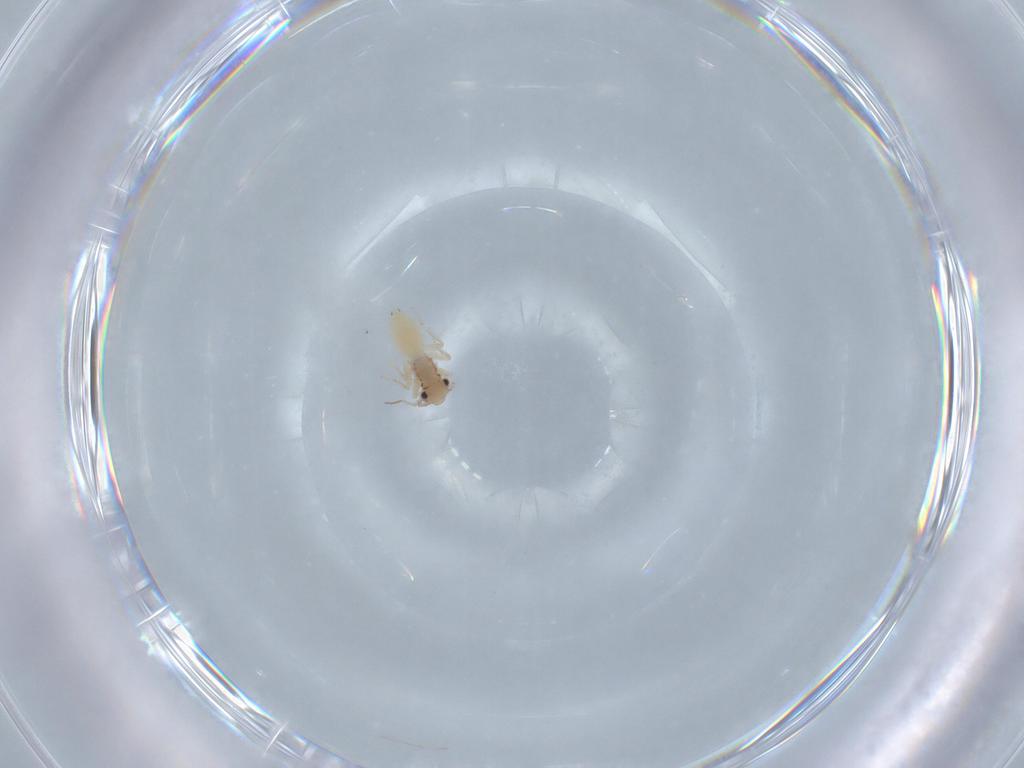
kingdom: Animalia
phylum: Arthropoda
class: Insecta
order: Psocodea
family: Lepidopsocidae
